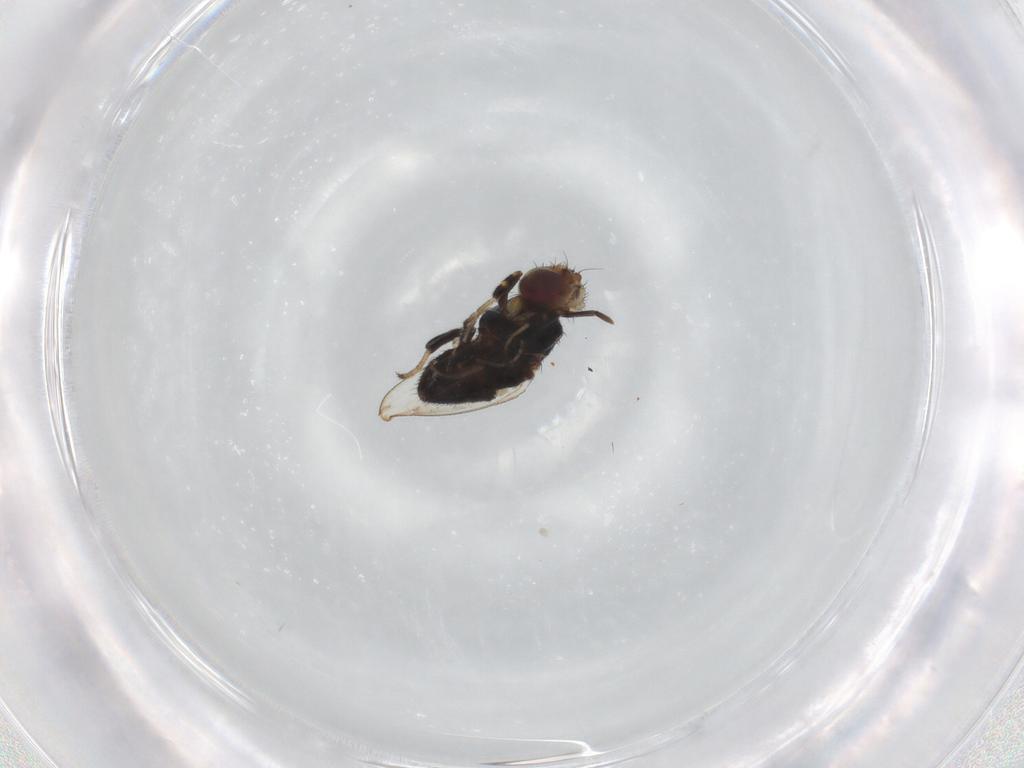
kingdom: Animalia
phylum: Arthropoda
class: Insecta
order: Diptera
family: Milichiidae
